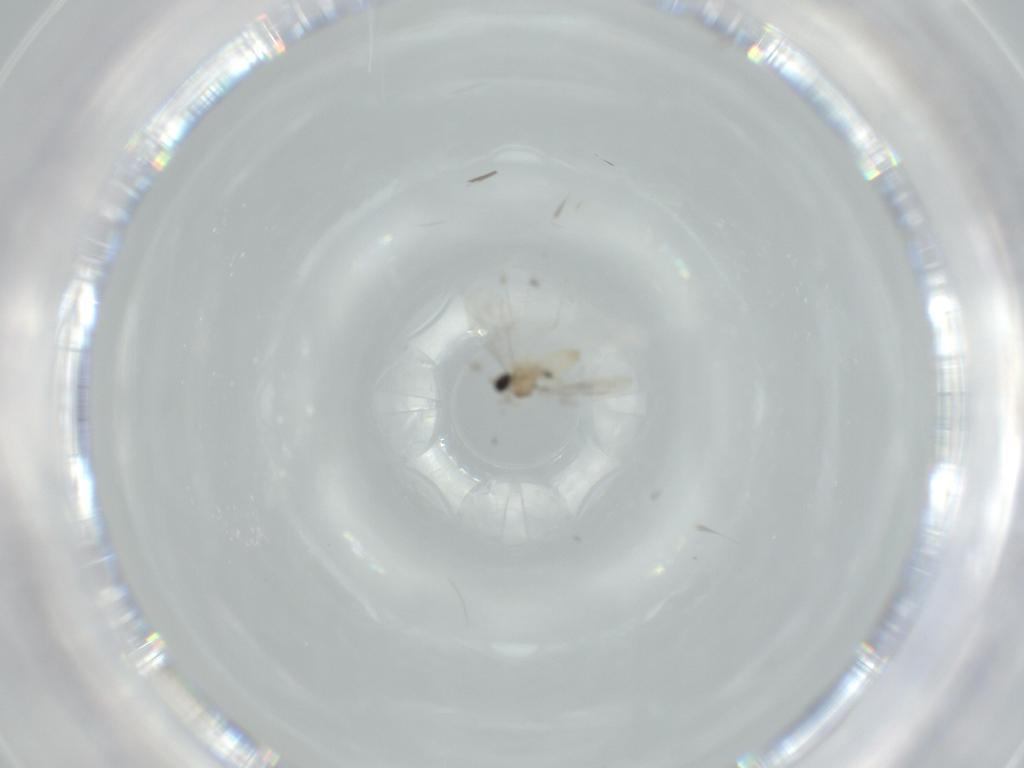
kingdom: Animalia
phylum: Arthropoda
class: Insecta
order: Diptera
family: Cecidomyiidae
